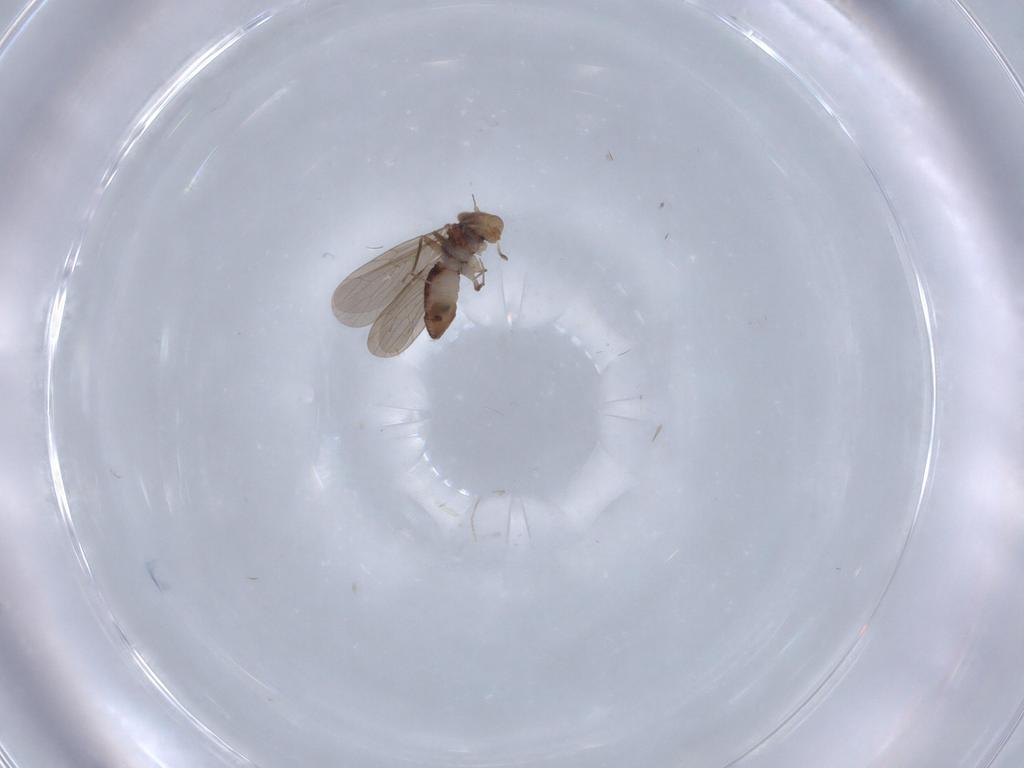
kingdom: Animalia
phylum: Arthropoda
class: Insecta
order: Psocodea
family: Lepidopsocidae
